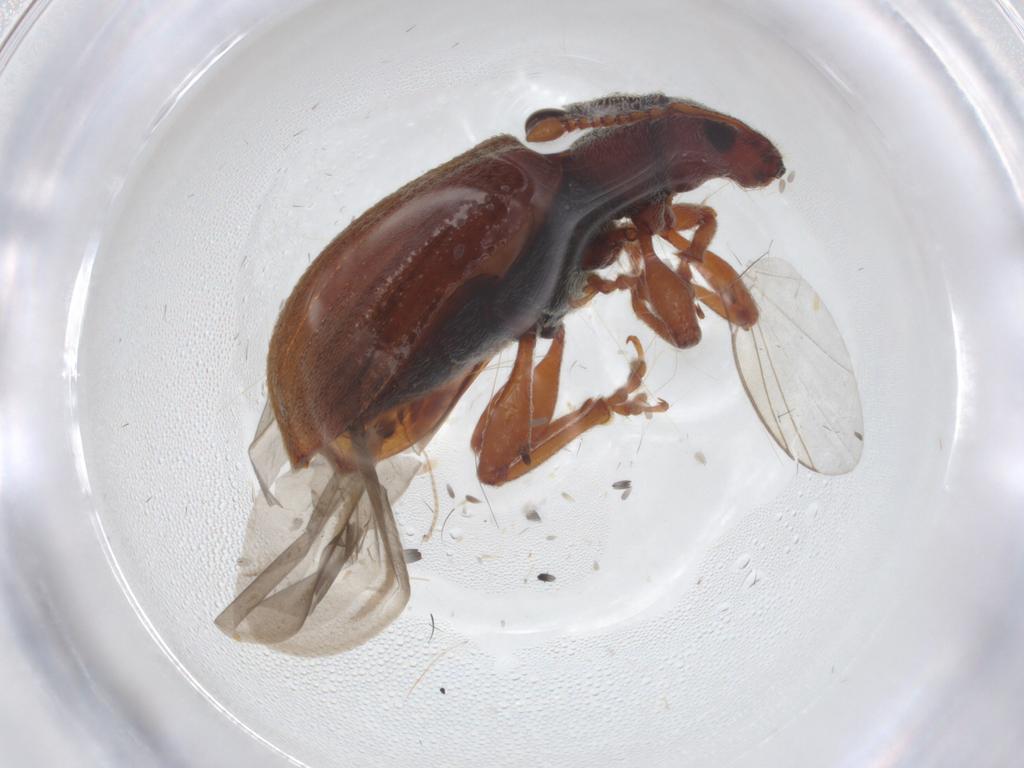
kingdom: Animalia
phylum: Arthropoda
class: Insecta
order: Coleoptera
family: Curculionidae
